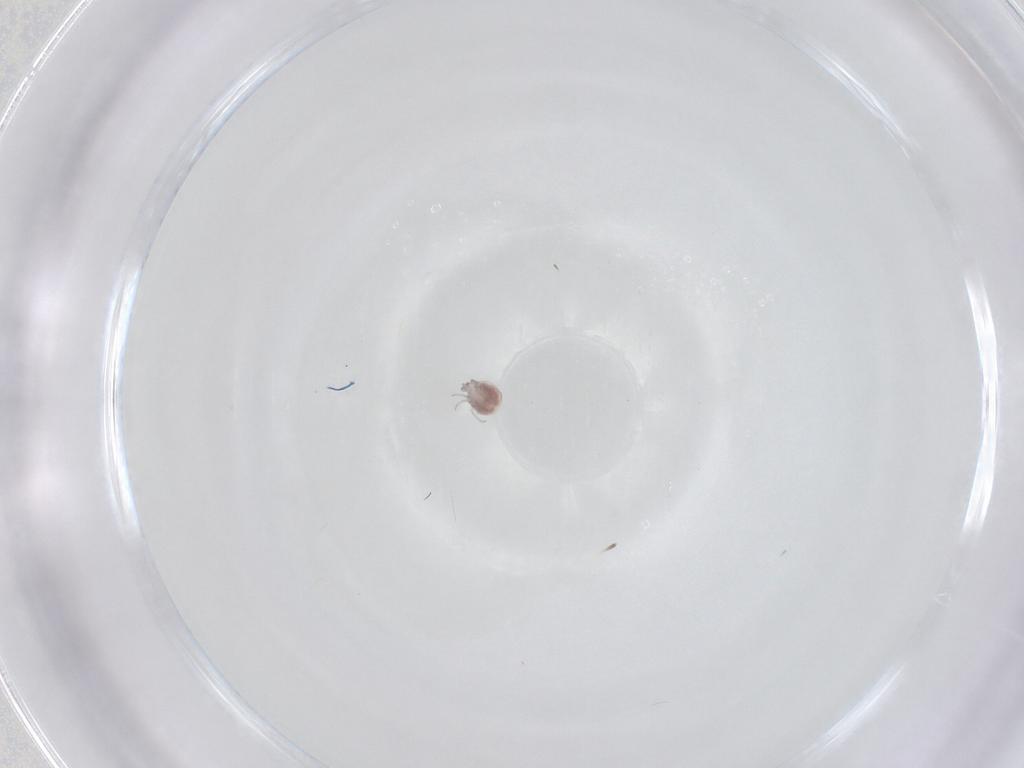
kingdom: Animalia
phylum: Arthropoda
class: Arachnida
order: Trombidiformes
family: Pionidae
